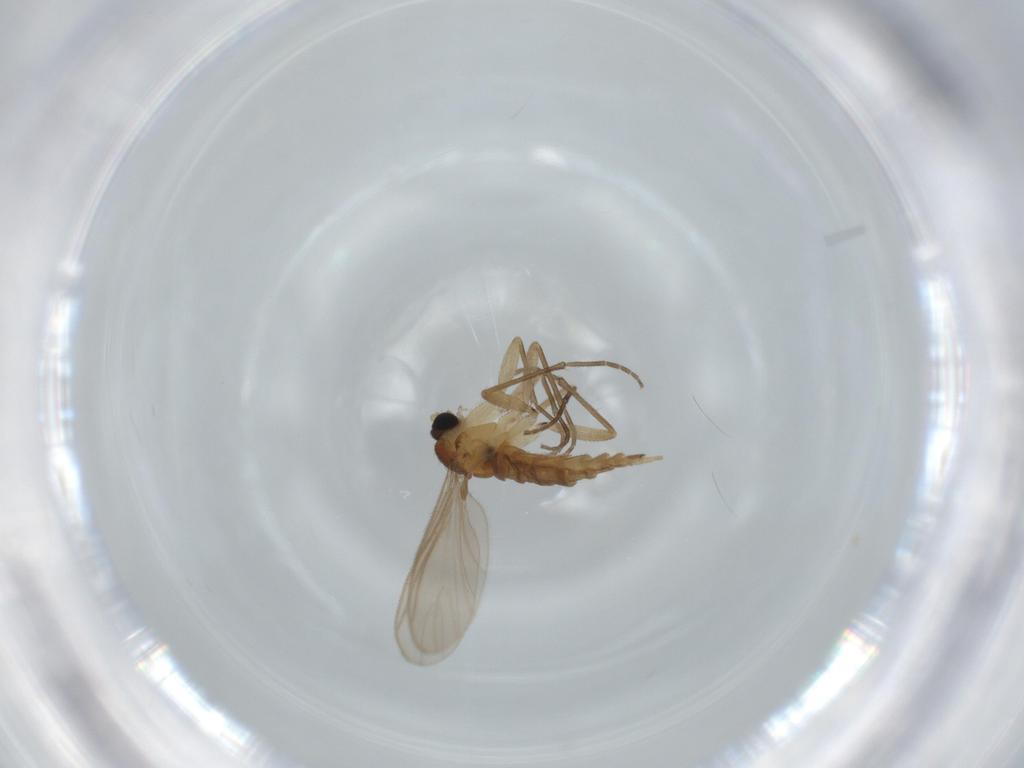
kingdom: Animalia
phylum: Arthropoda
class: Insecta
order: Diptera
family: Sciaridae
